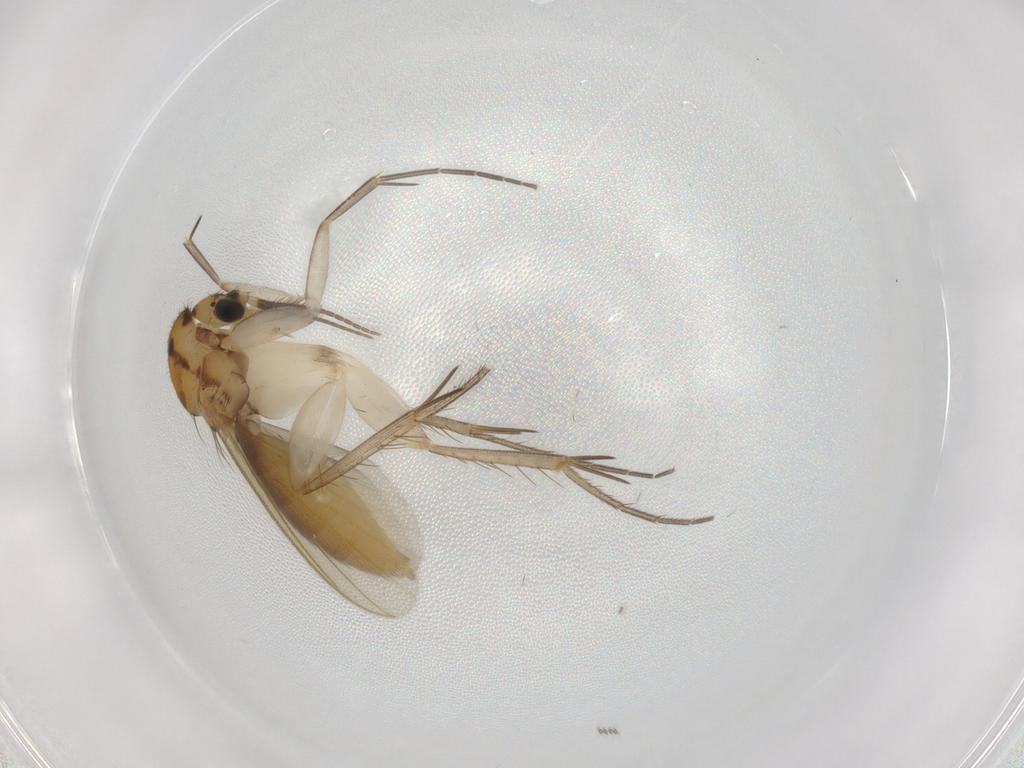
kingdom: Animalia
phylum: Arthropoda
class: Insecta
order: Diptera
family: Mycetophilidae
